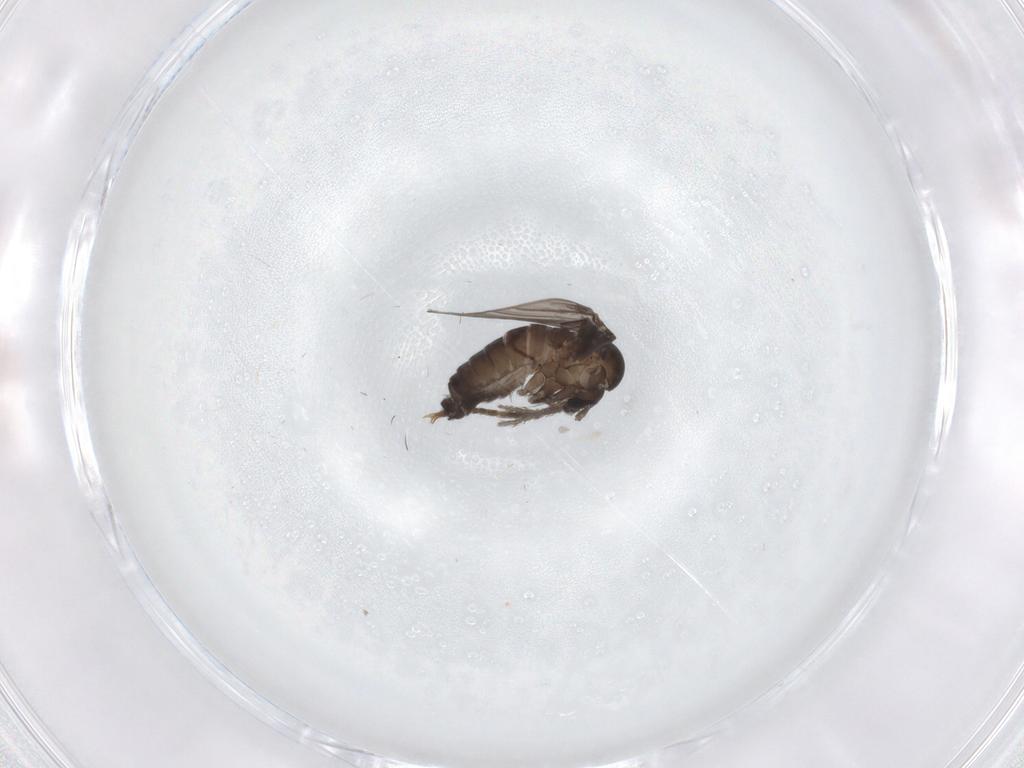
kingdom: Animalia
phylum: Arthropoda
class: Insecta
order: Diptera
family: Psychodidae
